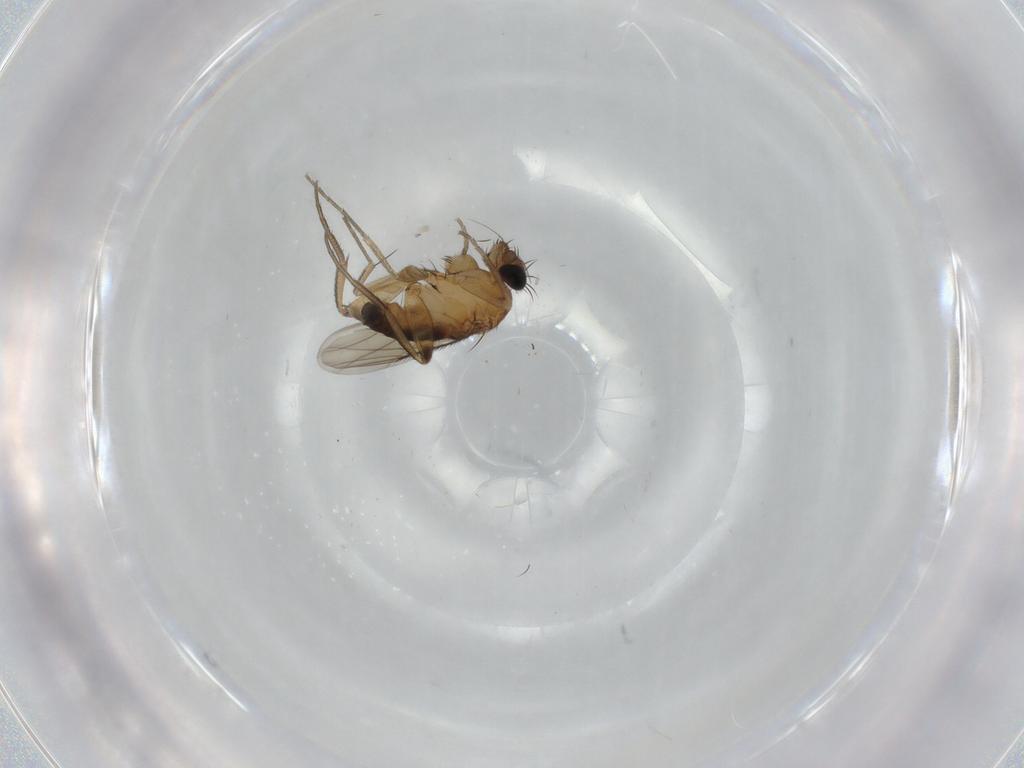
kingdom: Animalia
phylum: Arthropoda
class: Insecta
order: Diptera
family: Phoridae
